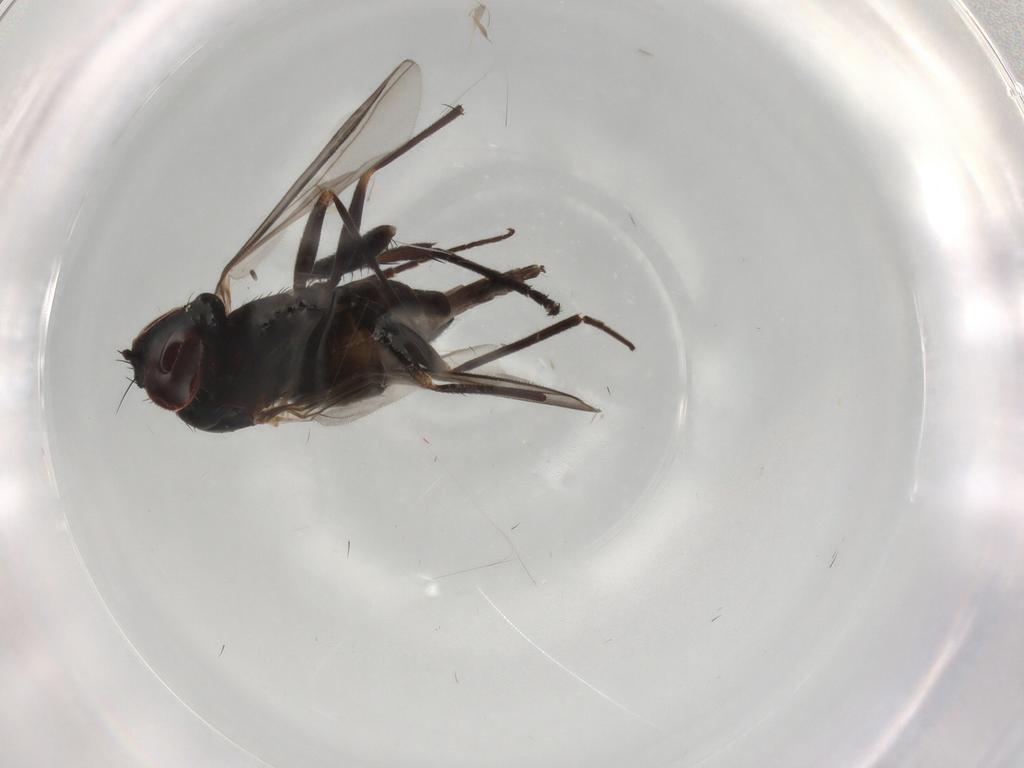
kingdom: Animalia
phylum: Arthropoda
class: Insecta
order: Diptera
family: Dolichopodidae
